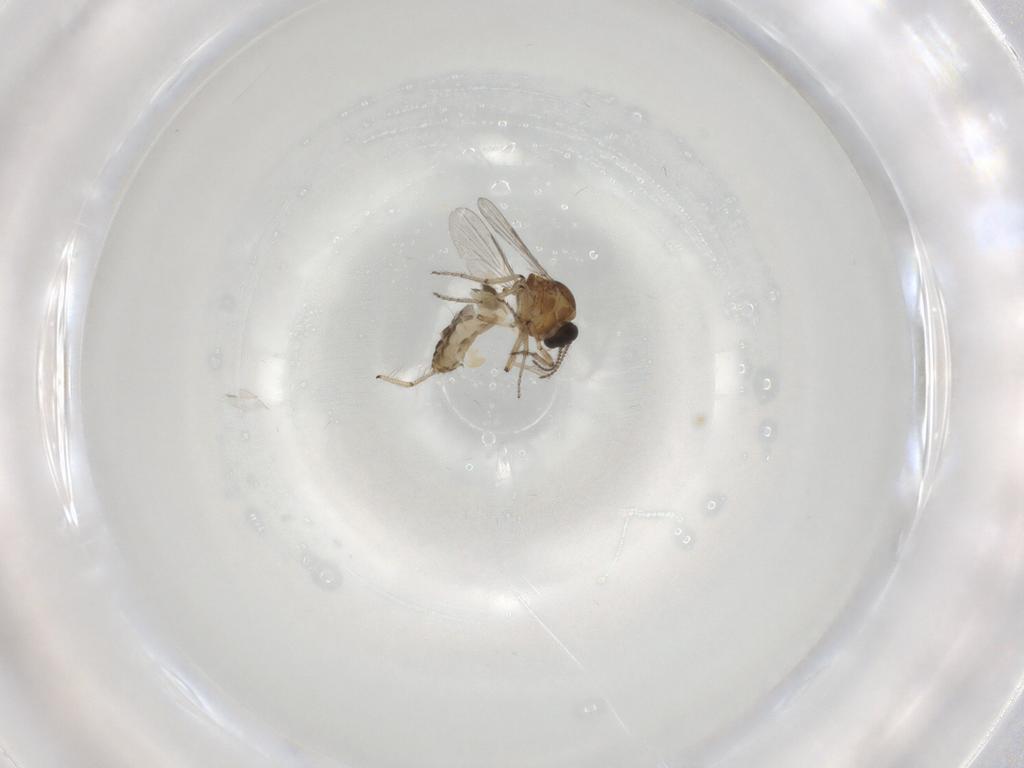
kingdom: Animalia
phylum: Arthropoda
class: Insecta
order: Diptera
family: Ceratopogonidae
